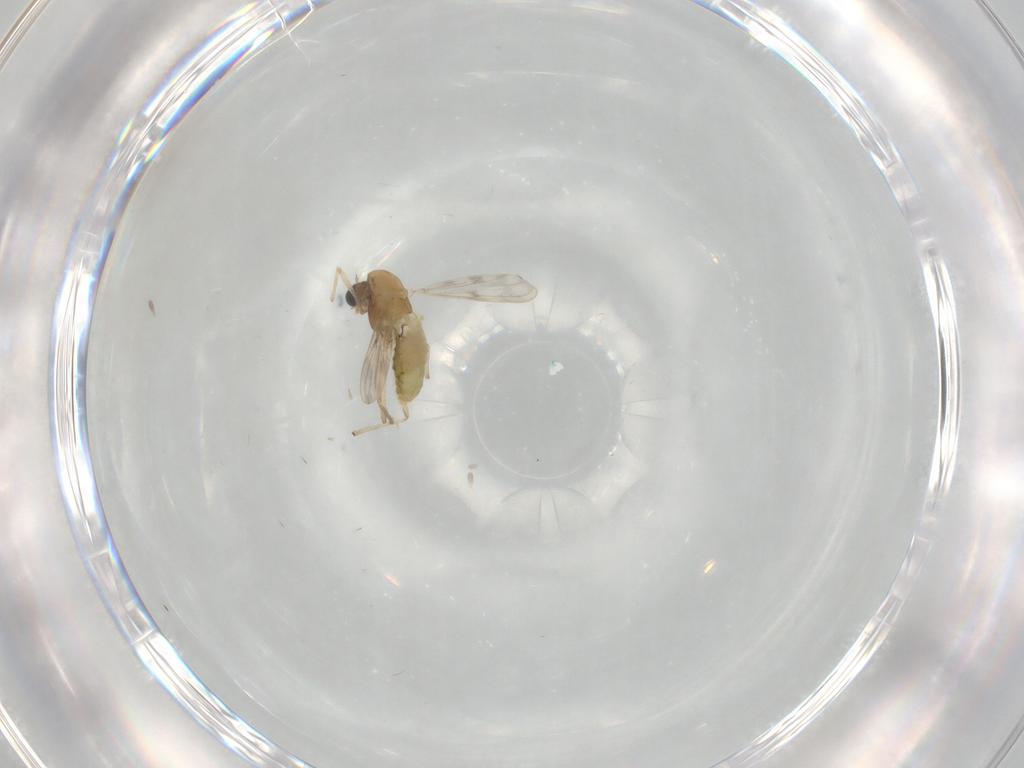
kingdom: Animalia
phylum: Arthropoda
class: Insecta
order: Diptera
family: Chironomidae
